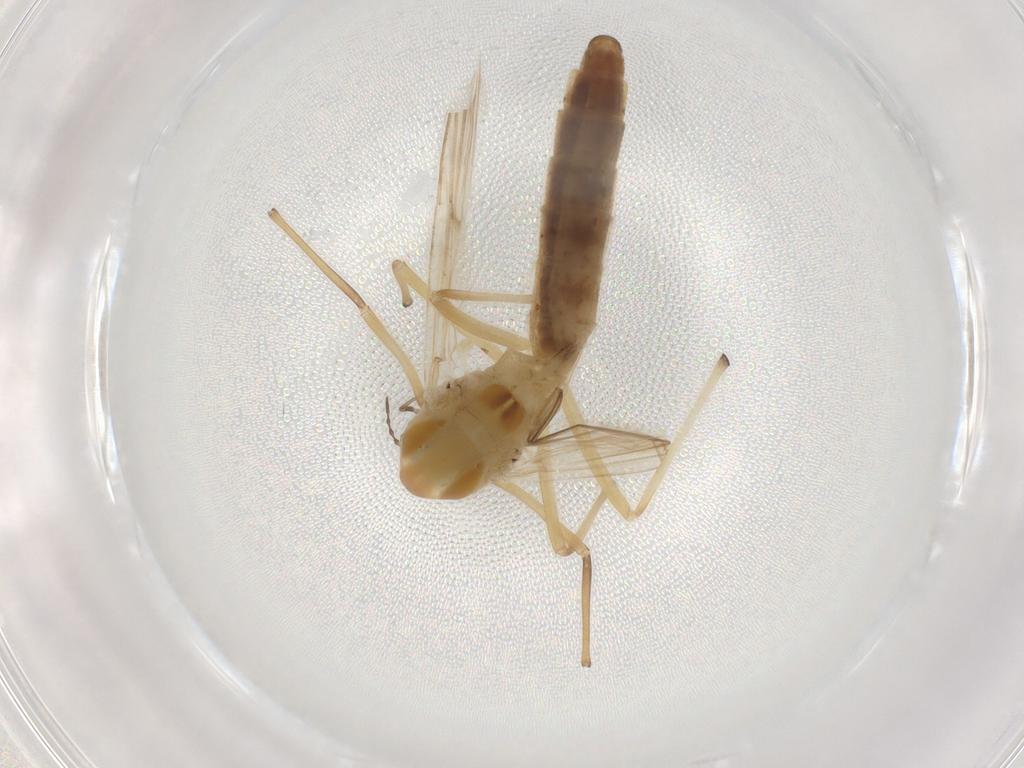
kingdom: Animalia
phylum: Arthropoda
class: Insecta
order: Diptera
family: Chironomidae
